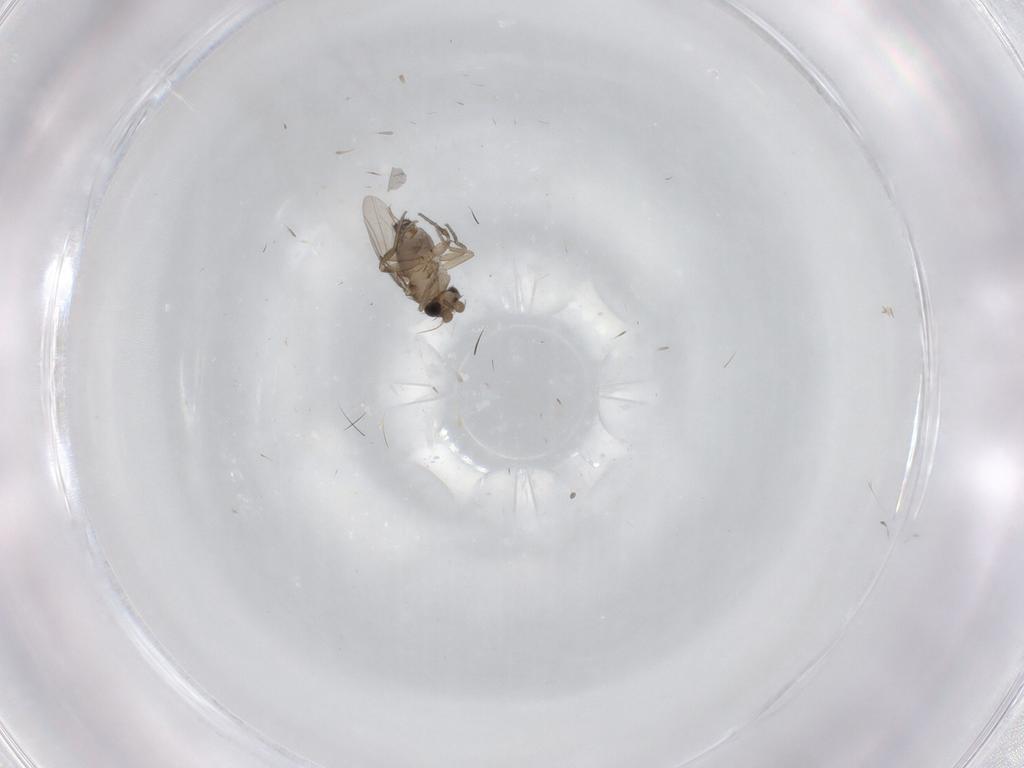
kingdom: Animalia
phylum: Arthropoda
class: Insecta
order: Diptera
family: Phoridae
